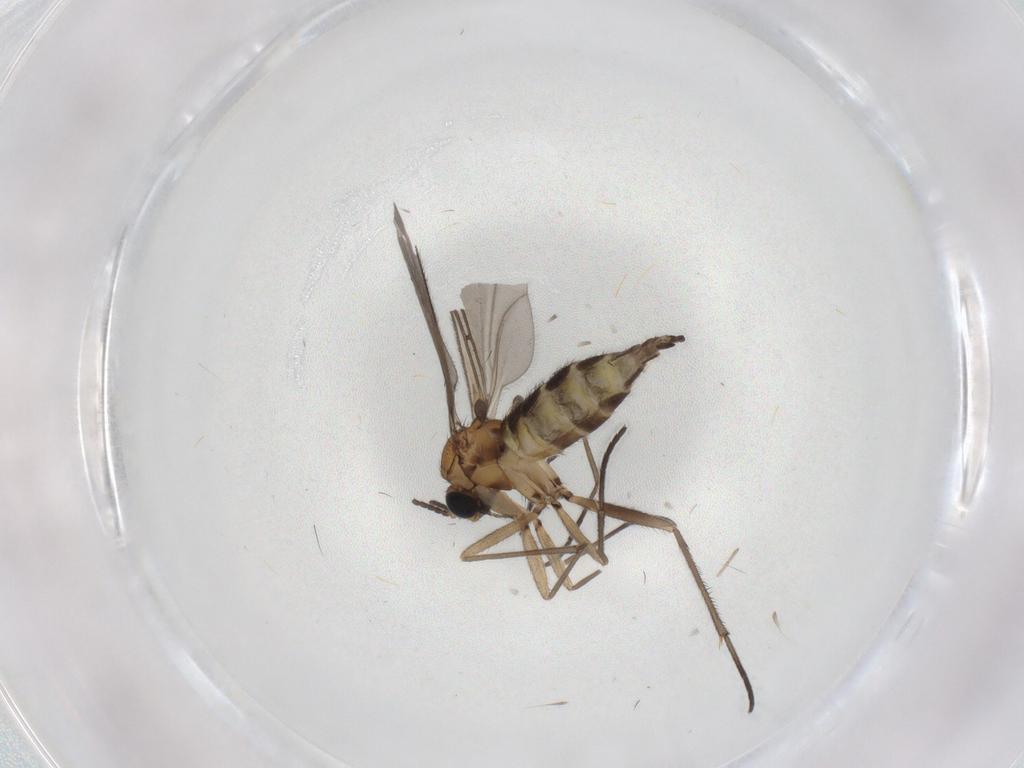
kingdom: Animalia
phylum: Arthropoda
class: Insecta
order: Diptera
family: Sciaridae
